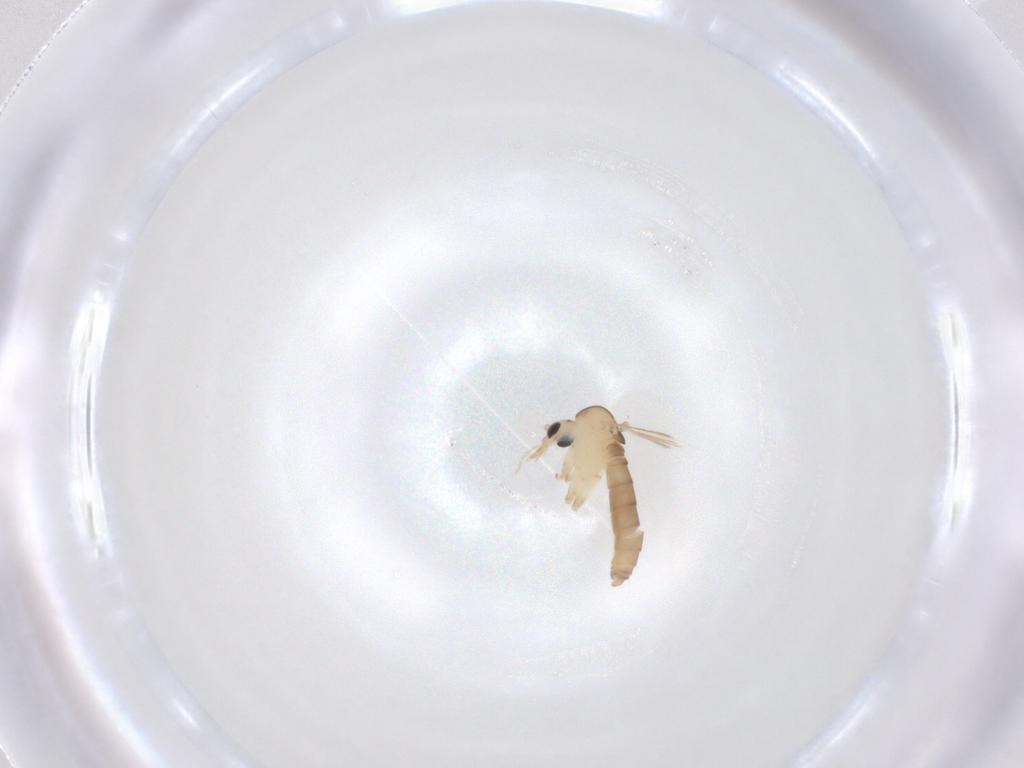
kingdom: Animalia
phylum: Arthropoda
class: Insecta
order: Diptera
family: Psychodidae
